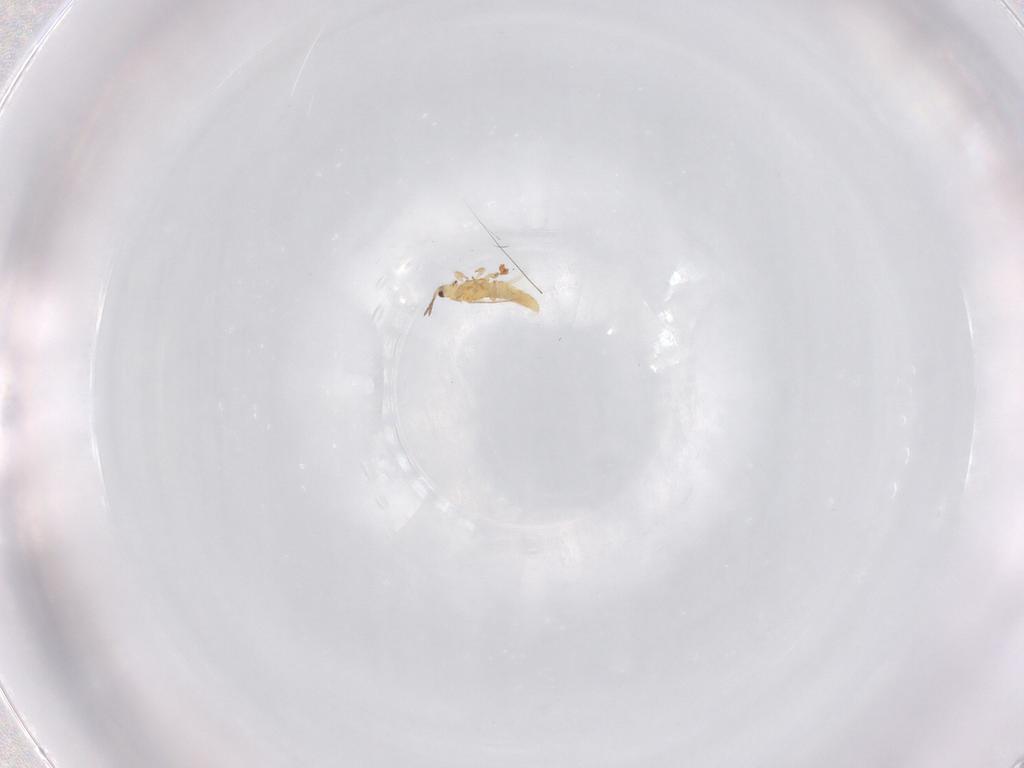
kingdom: Animalia
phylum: Arthropoda
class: Insecta
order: Thysanoptera
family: Thripidae
